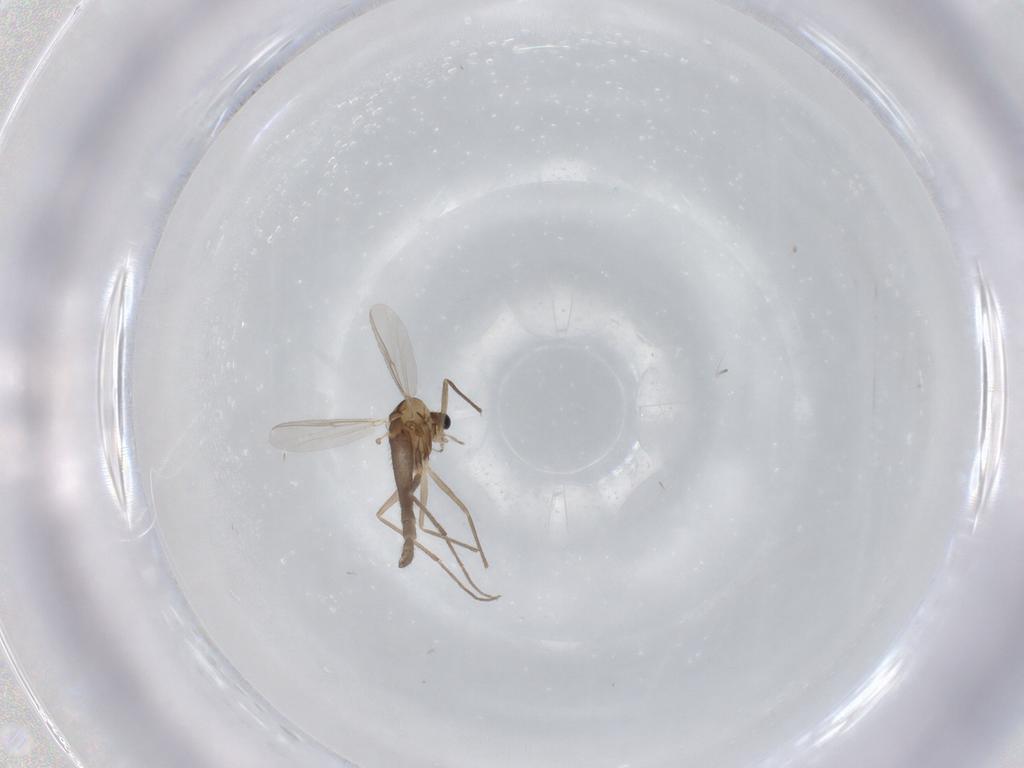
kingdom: Animalia
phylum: Arthropoda
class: Insecta
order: Diptera
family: Chironomidae
